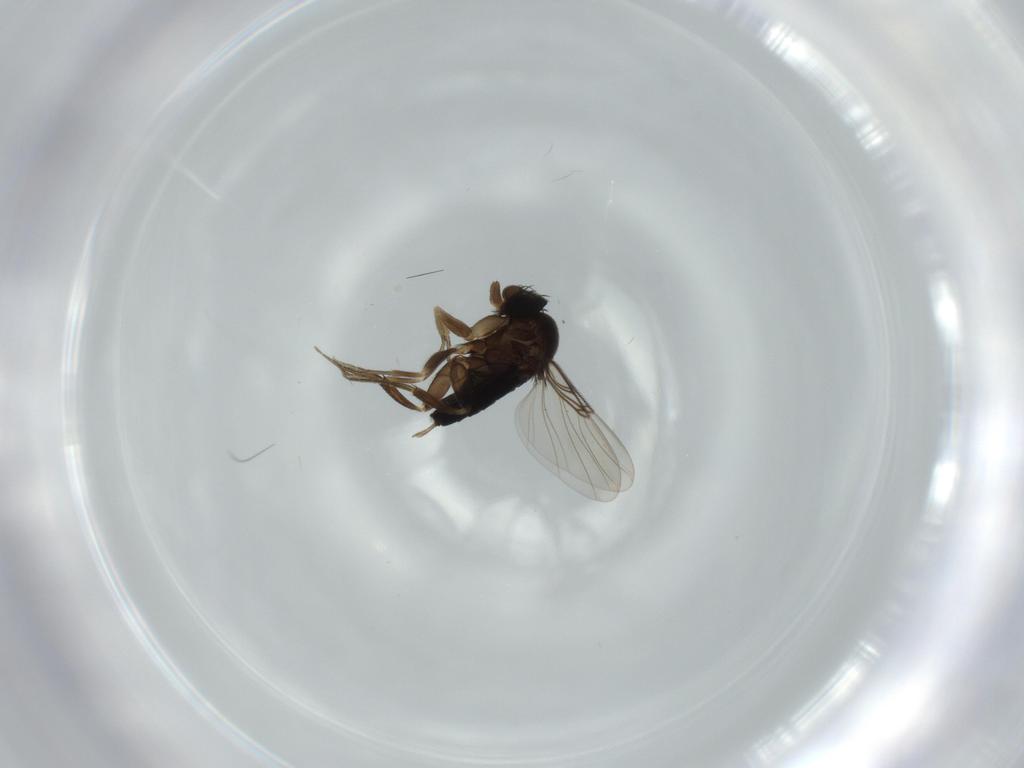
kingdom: Animalia
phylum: Arthropoda
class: Insecta
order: Diptera
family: Phoridae
